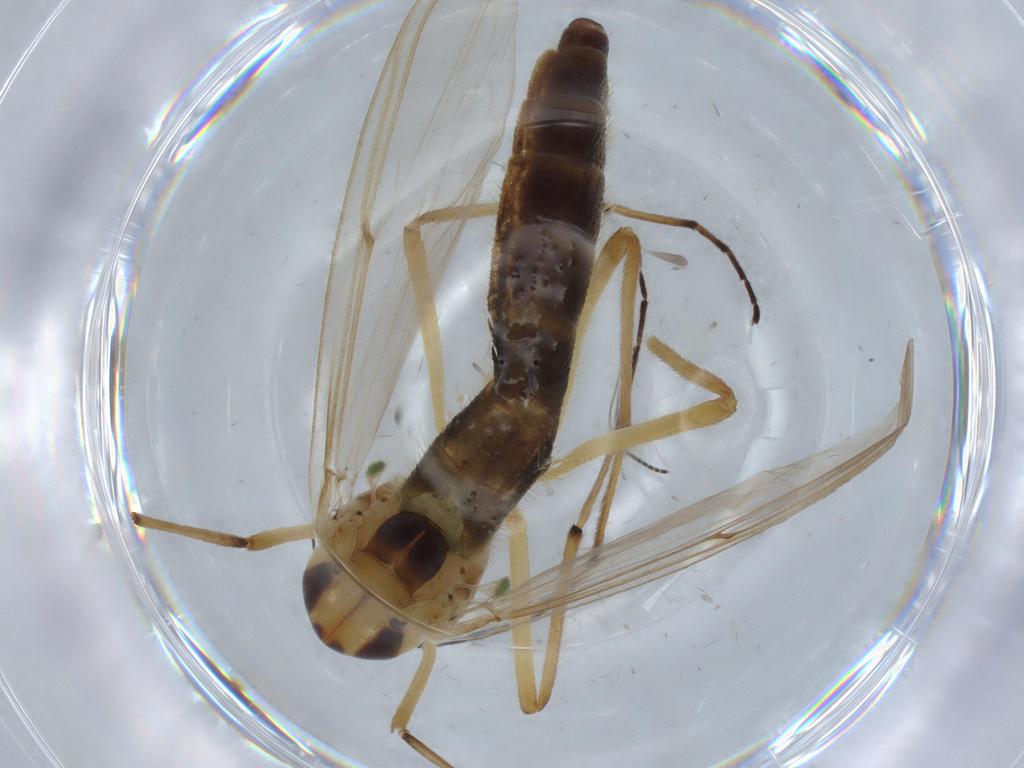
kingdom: Animalia
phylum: Arthropoda
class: Insecta
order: Diptera
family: Chironomidae
